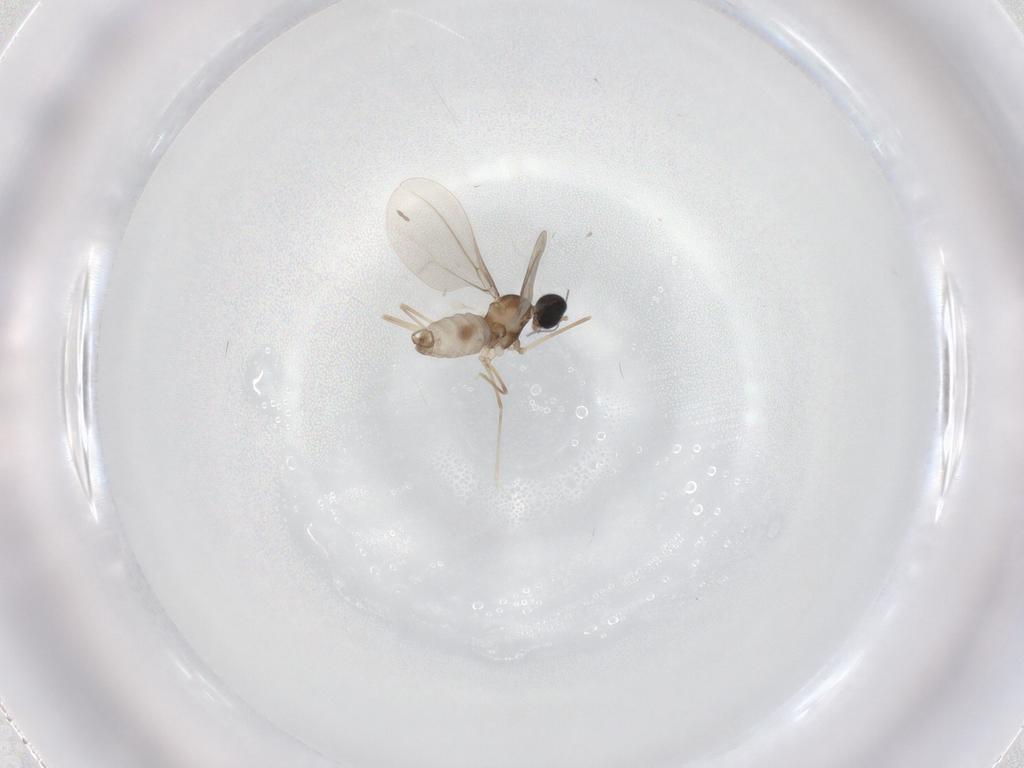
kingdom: Animalia
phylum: Arthropoda
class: Insecta
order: Diptera
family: Cecidomyiidae
